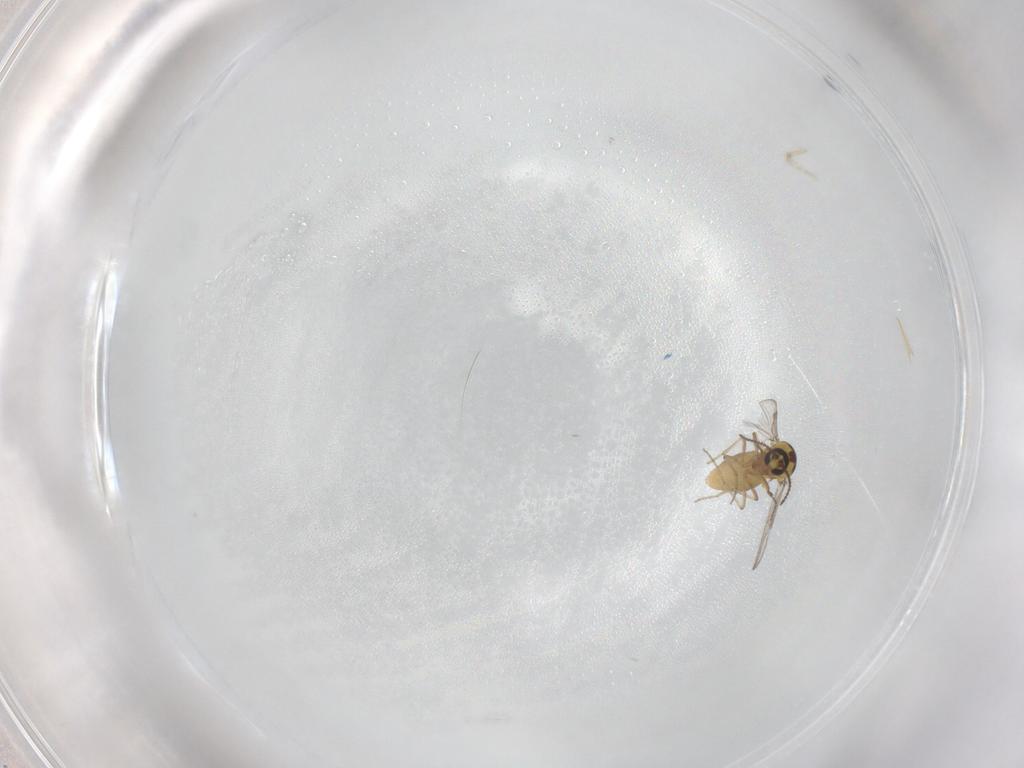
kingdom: Animalia
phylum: Arthropoda
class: Insecta
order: Diptera
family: Ceratopogonidae
